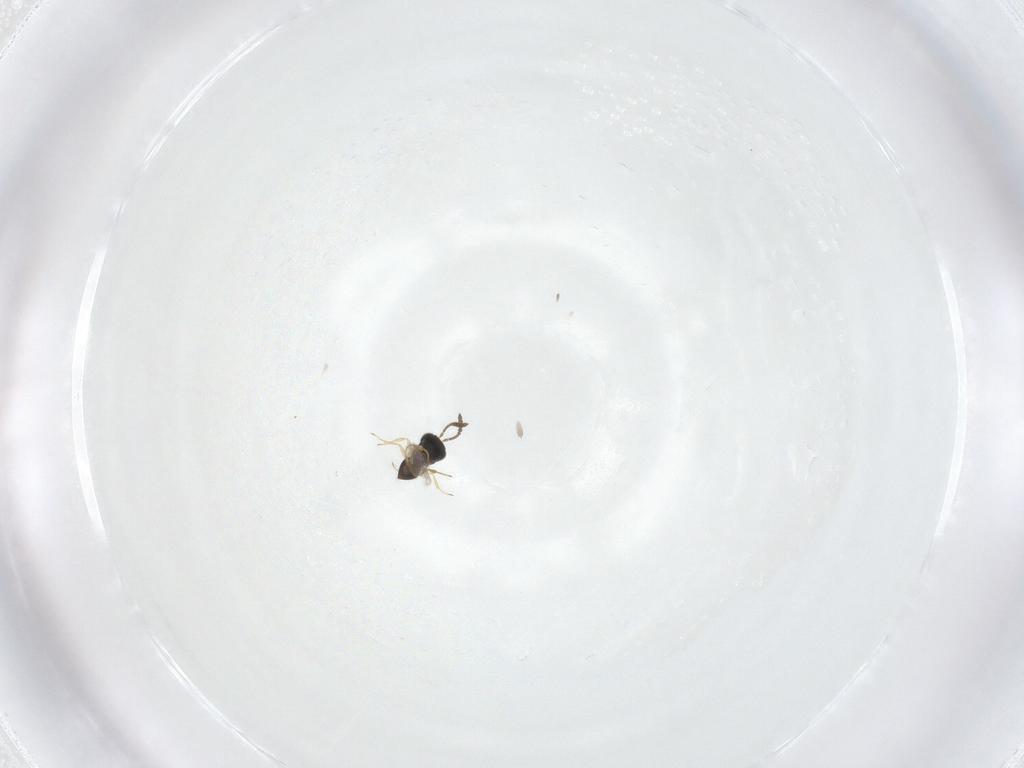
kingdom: Animalia
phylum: Arthropoda
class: Insecta
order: Hymenoptera
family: Scelionidae
